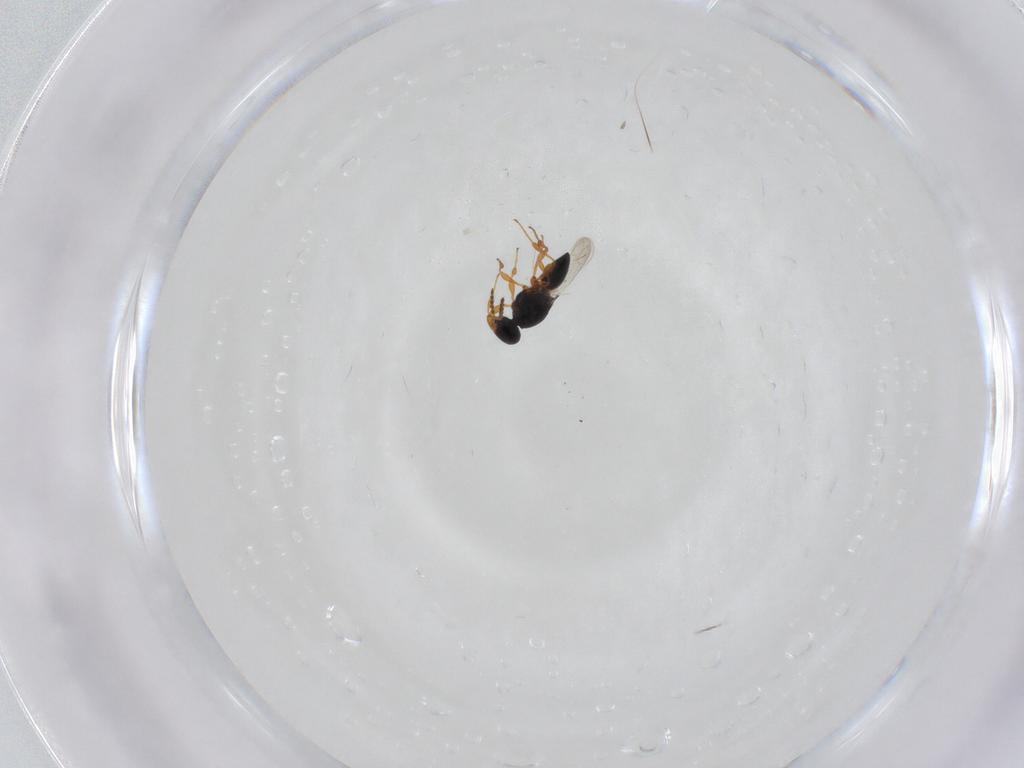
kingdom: Animalia
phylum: Arthropoda
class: Insecta
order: Hymenoptera
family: Platygastridae
